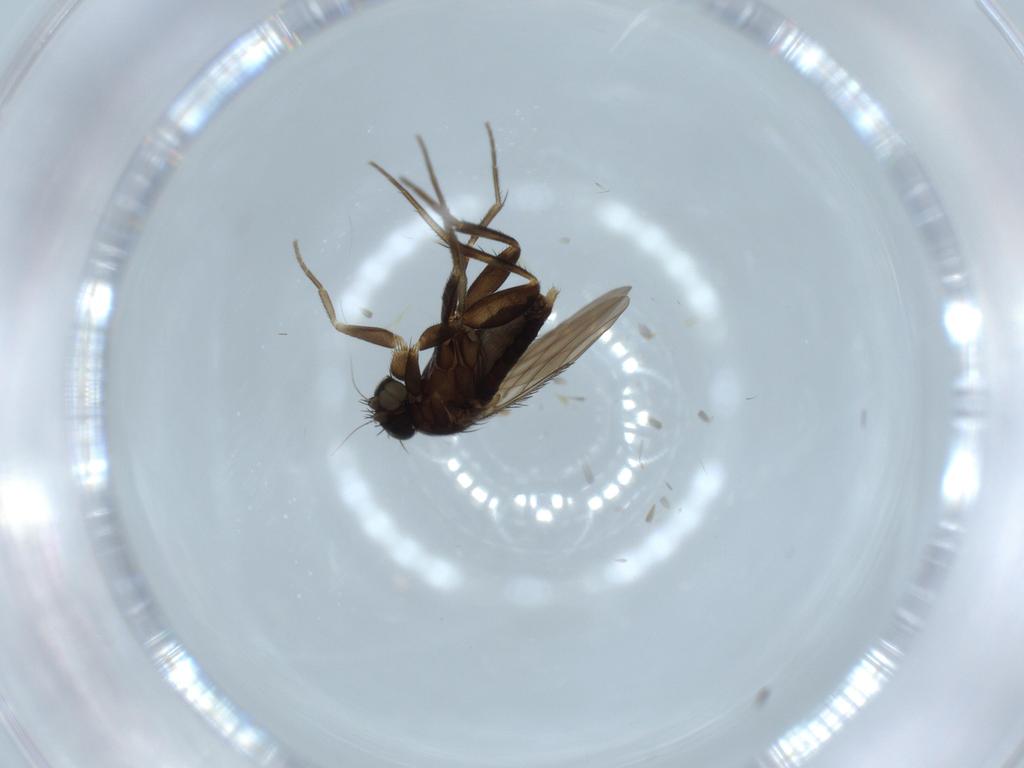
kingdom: Animalia
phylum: Arthropoda
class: Insecta
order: Diptera
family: Phoridae
